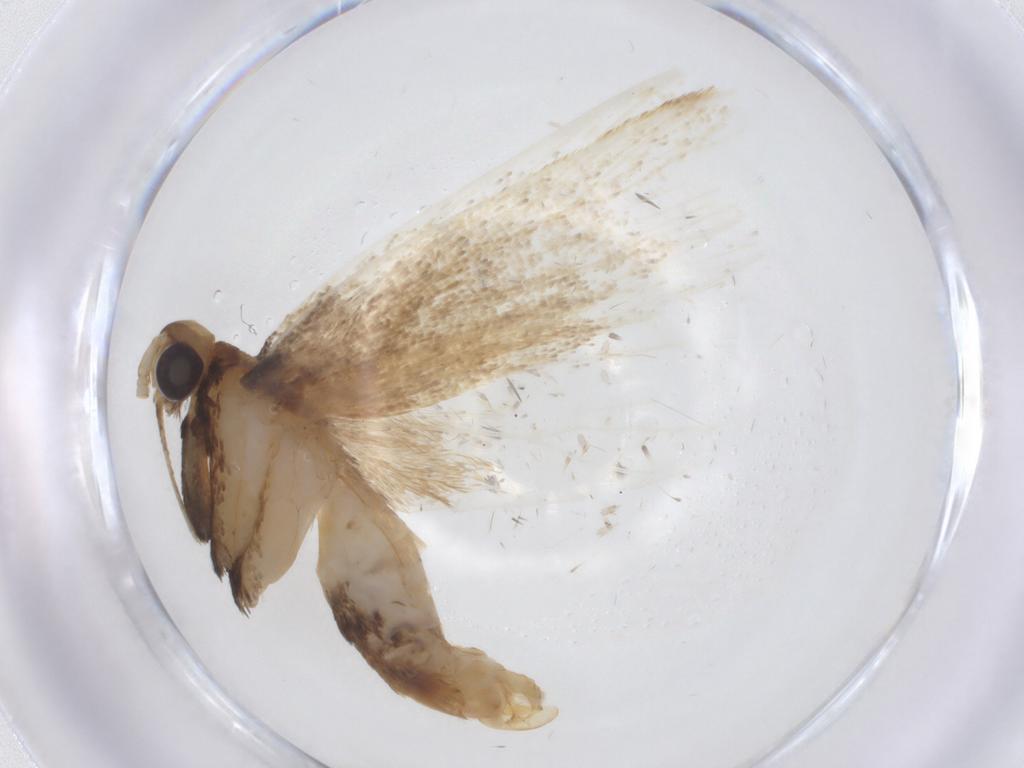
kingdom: Animalia
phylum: Arthropoda
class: Insecta
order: Lepidoptera
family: Lecithoceridae
